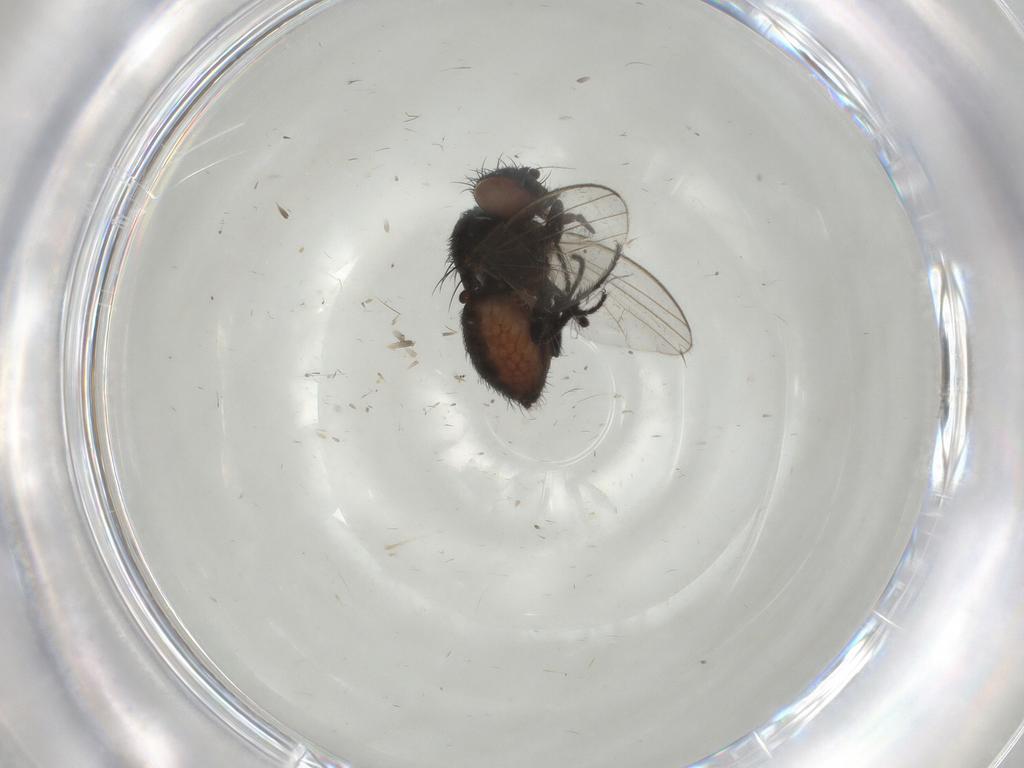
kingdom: Animalia
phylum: Arthropoda
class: Insecta
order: Diptera
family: Milichiidae
